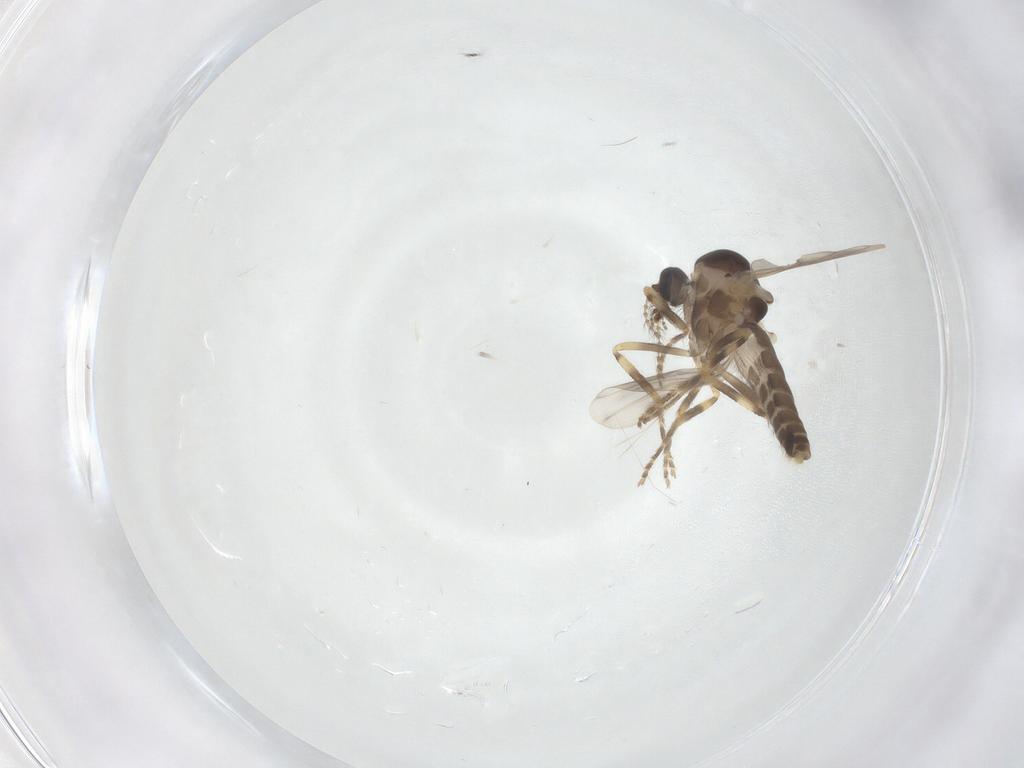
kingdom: Animalia
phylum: Arthropoda
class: Insecta
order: Diptera
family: Ceratopogonidae
